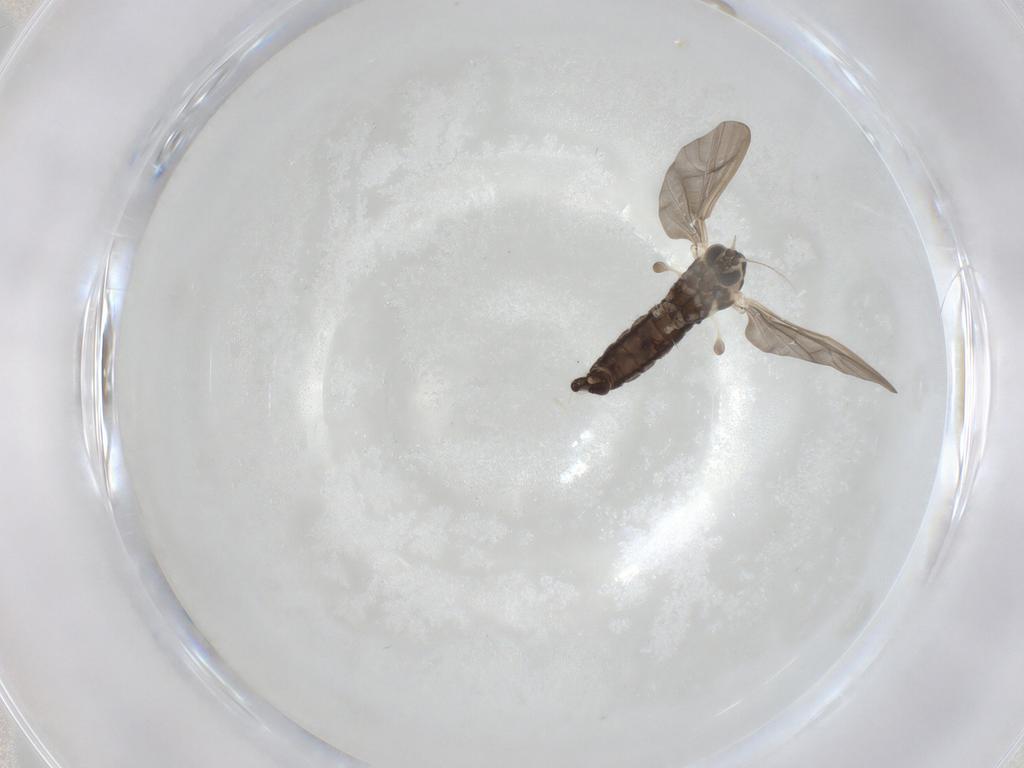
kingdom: Animalia
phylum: Arthropoda
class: Insecta
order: Diptera
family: Limoniidae
